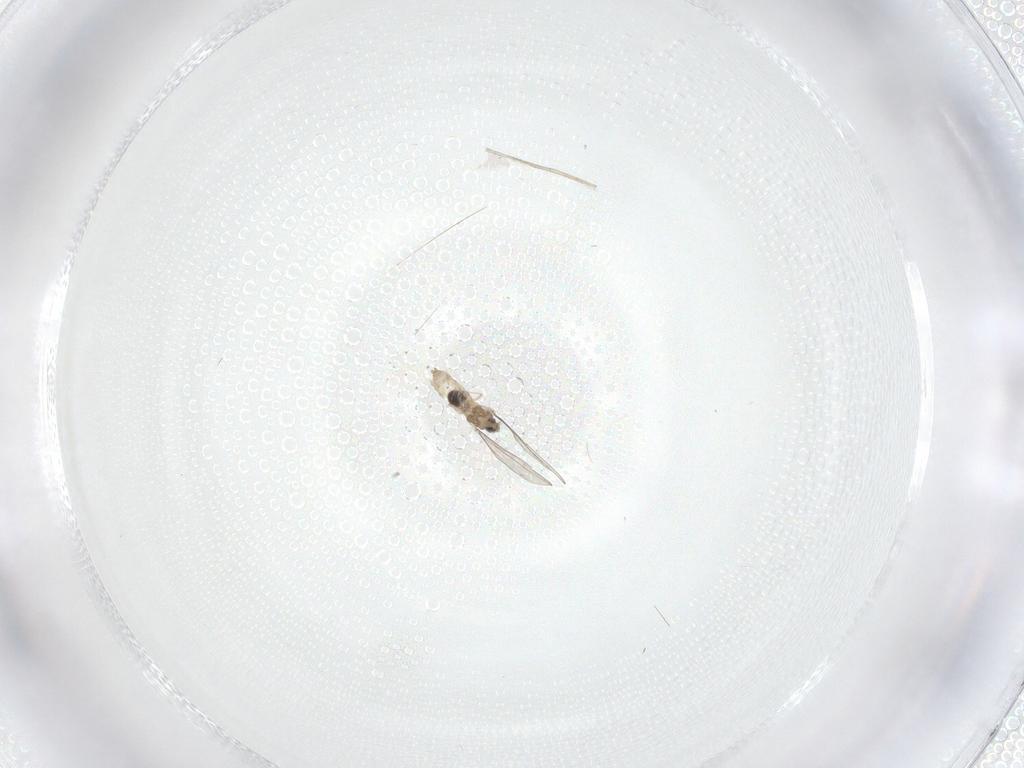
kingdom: Animalia
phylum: Arthropoda
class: Insecta
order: Diptera
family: Cecidomyiidae
